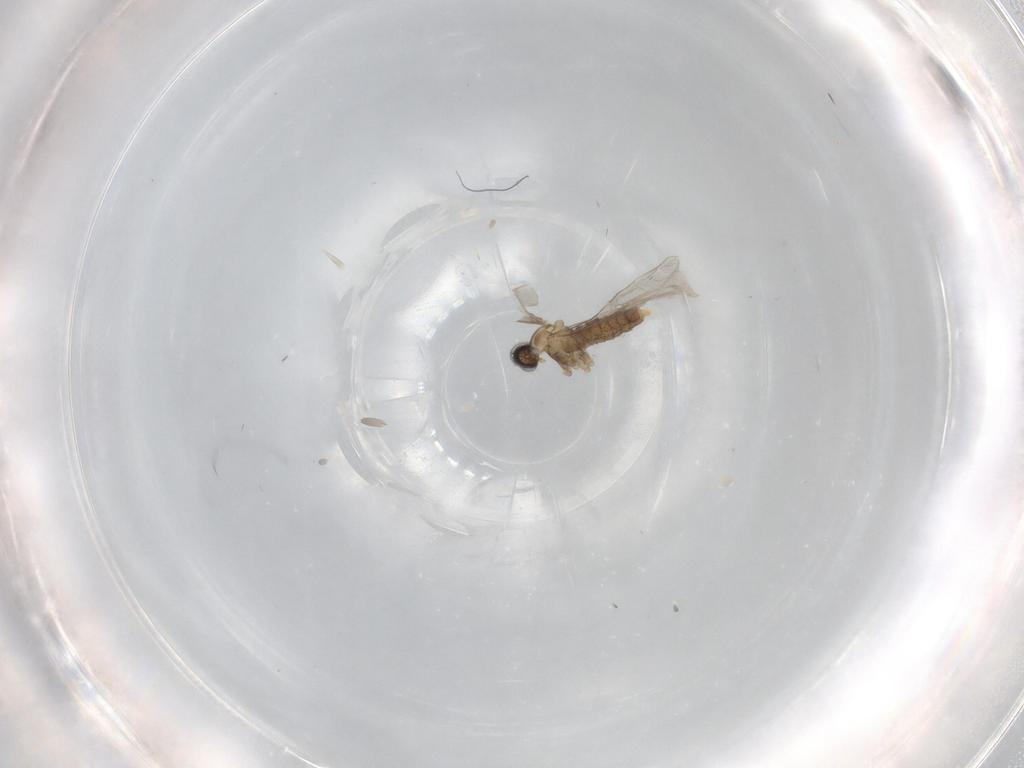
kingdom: Animalia
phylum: Arthropoda
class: Insecta
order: Diptera
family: Cecidomyiidae
